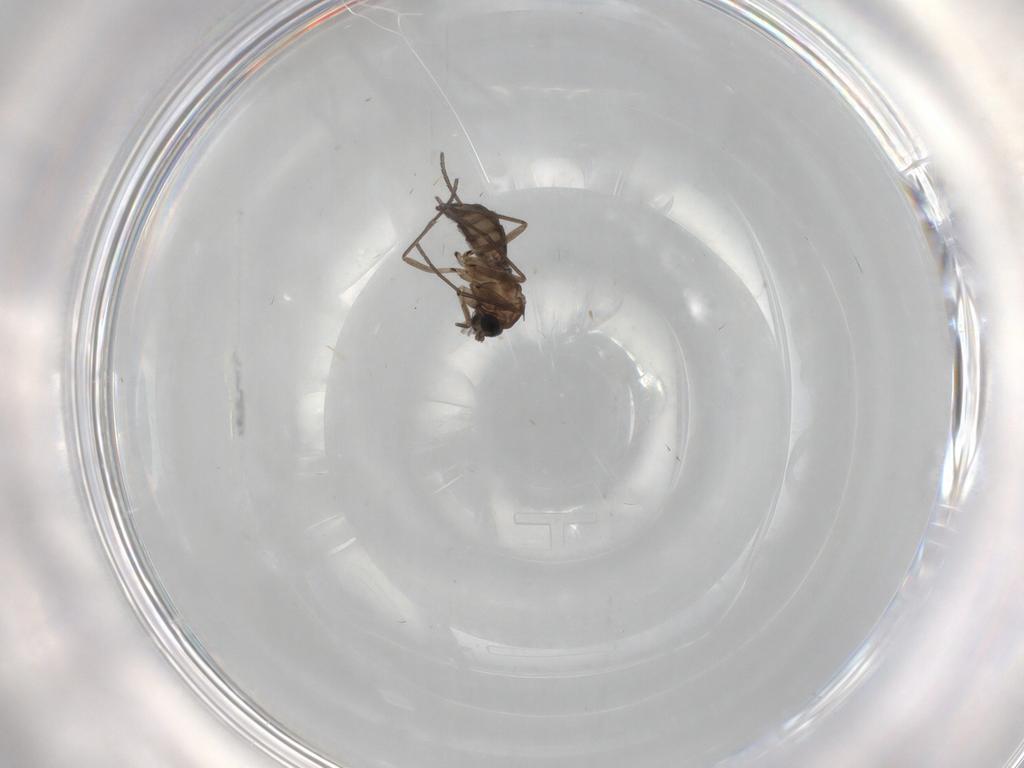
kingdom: Animalia
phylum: Arthropoda
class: Insecta
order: Diptera
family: Sciaridae
